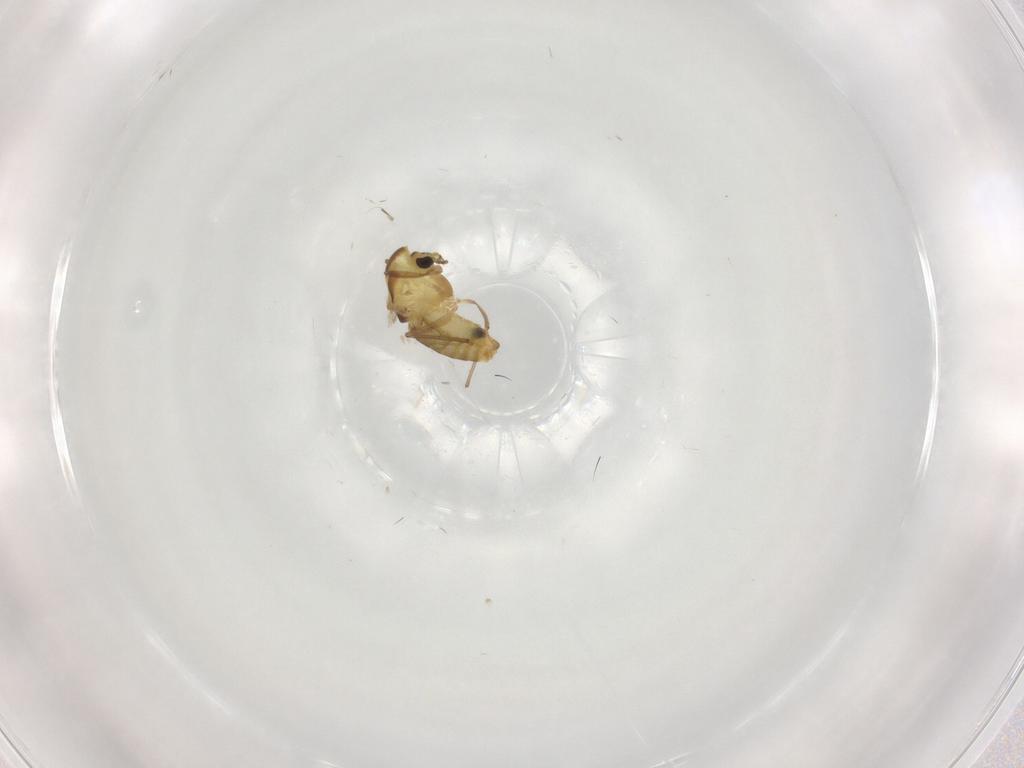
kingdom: Animalia
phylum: Arthropoda
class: Insecta
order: Diptera
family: Chironomidae
